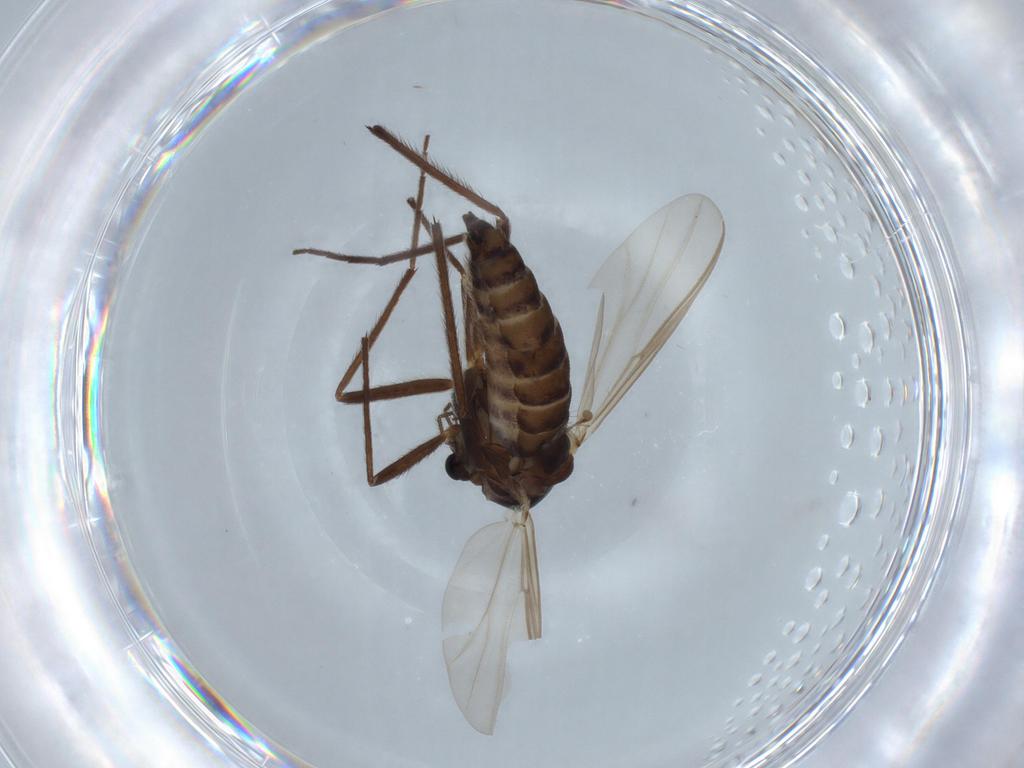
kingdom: Animalia
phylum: Arthropoda
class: Insecta
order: Diptera
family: Chironomidae
